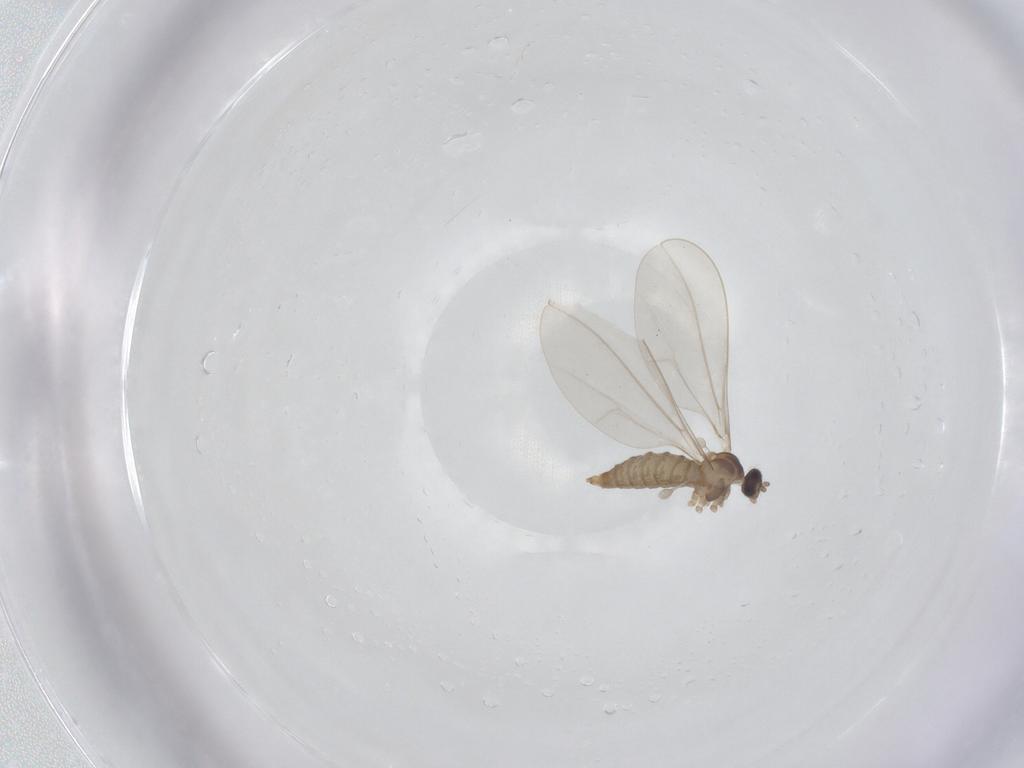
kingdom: Animalia
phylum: Arthropoda
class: Insecta
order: Diptera
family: Cecidomyiidae
